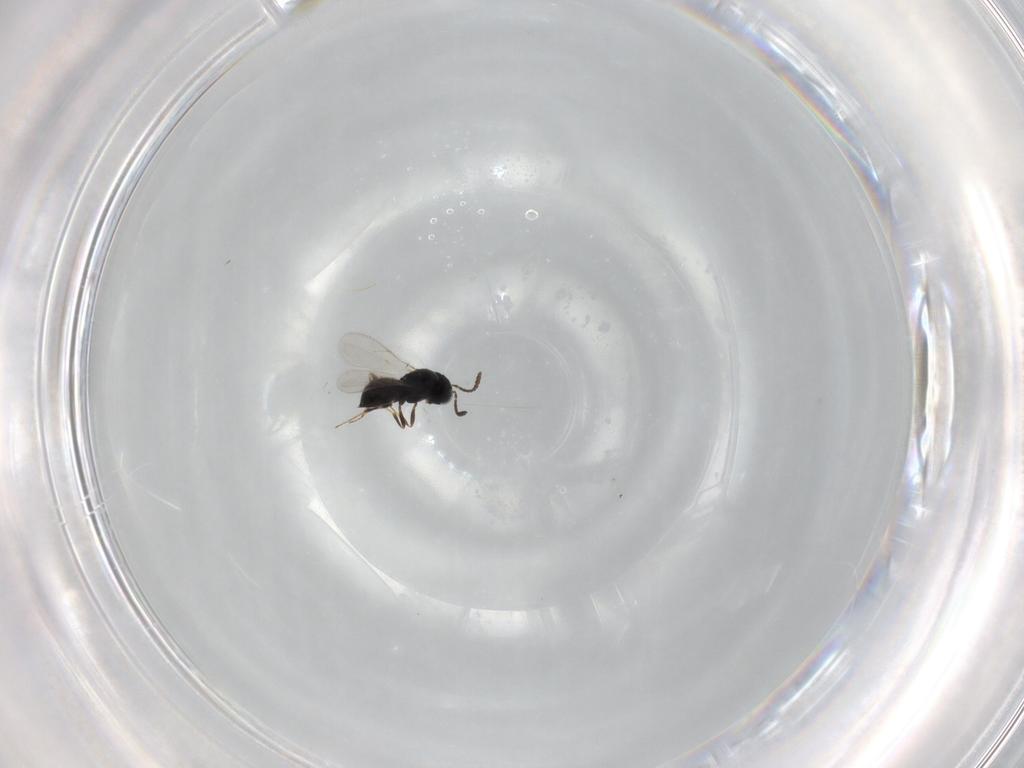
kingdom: Animalia
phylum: Arthropoda
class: Insecta
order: Hymenoptera
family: Scelionidae
